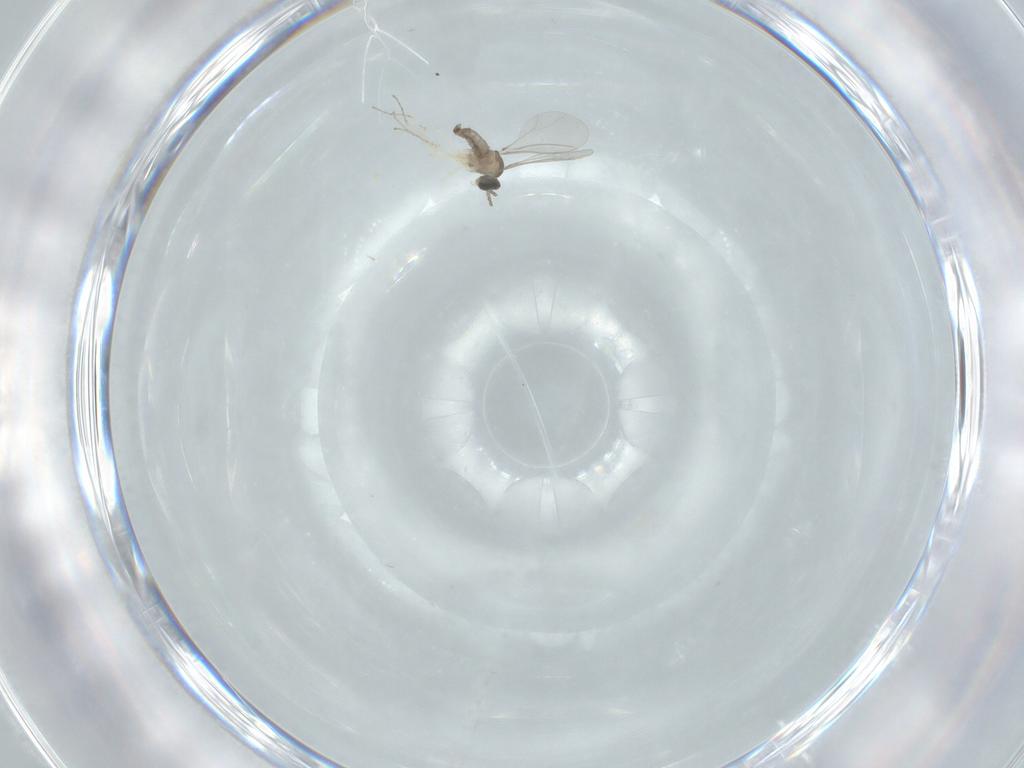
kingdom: Animalia
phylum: Arthropoda
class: Insecta
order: Diptera
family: Cecidomyiidae
